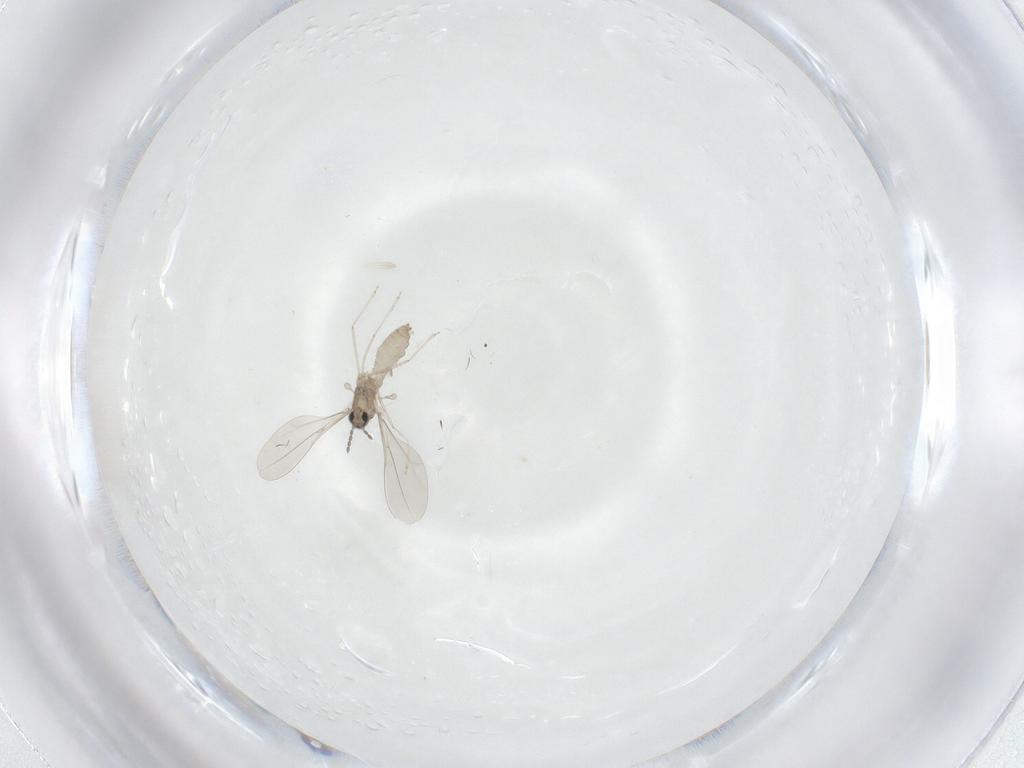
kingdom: Animalia
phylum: Arthropoda
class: Insecta
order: Diptera
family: Cecidomyiidae
